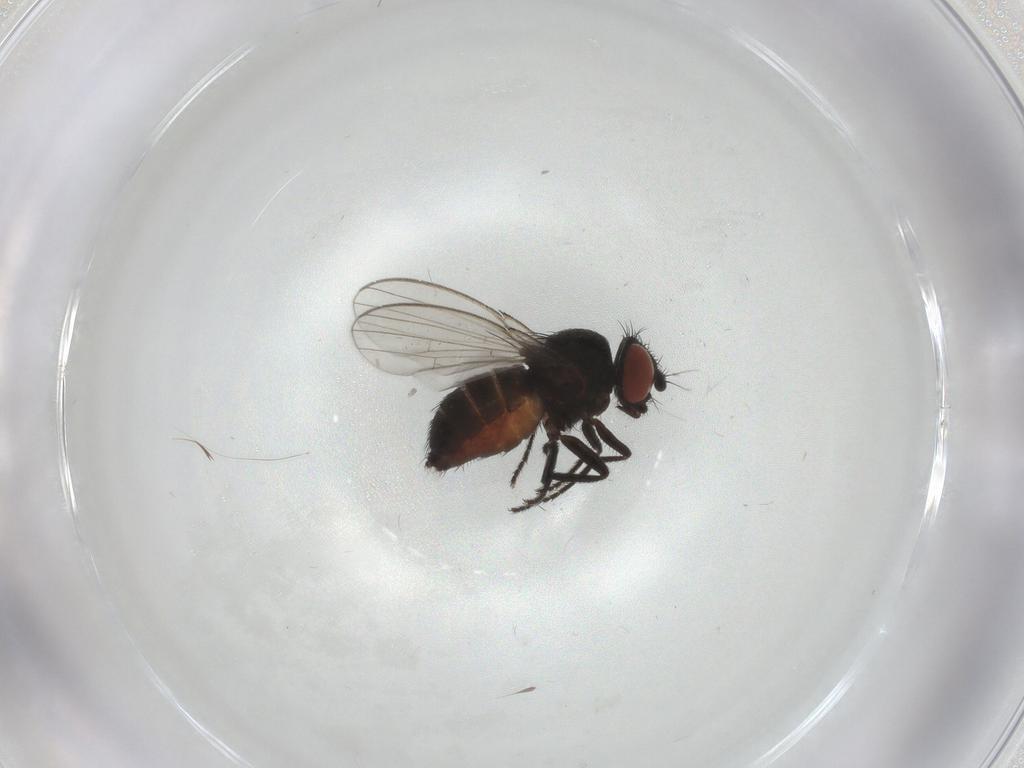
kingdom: Animalia
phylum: Arthropoda
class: Insecta
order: Diptera
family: Milichiidae
